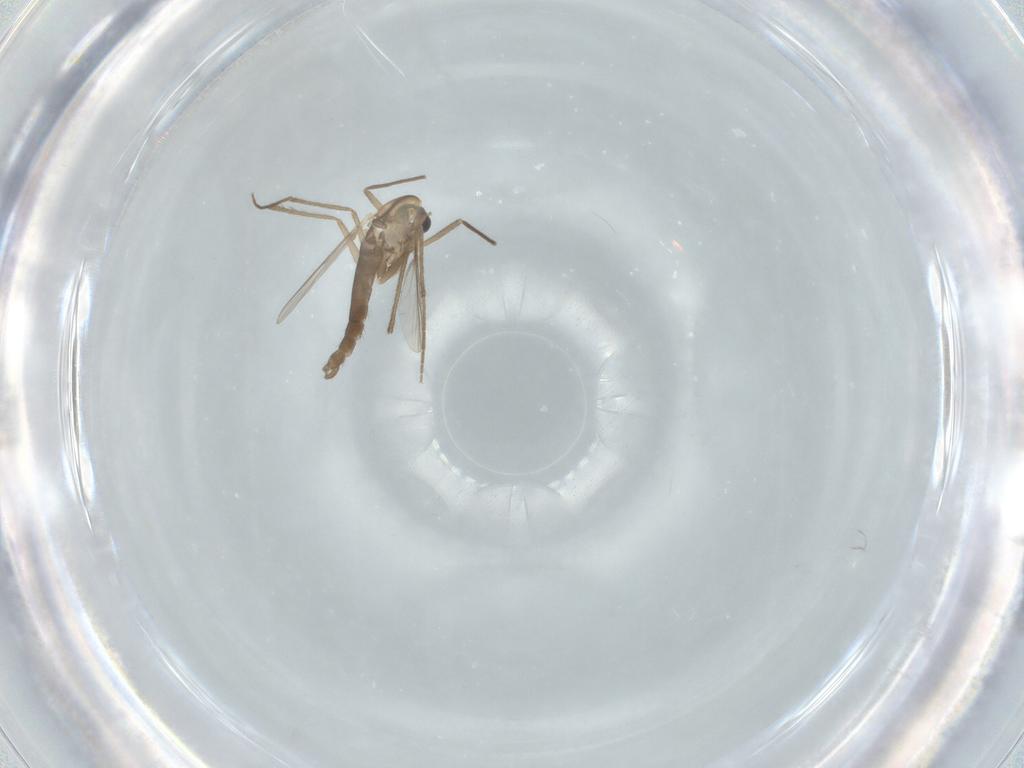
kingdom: Animalia
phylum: Arthropoda
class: Insecta
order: Diptera
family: Chironomidae
